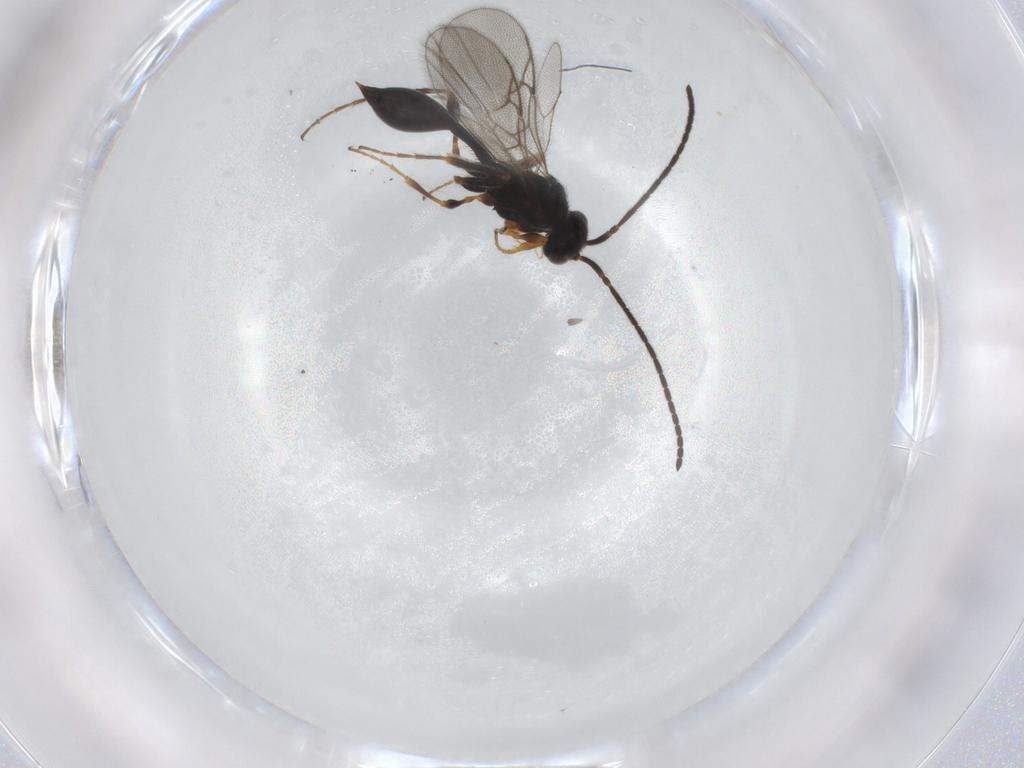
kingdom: Animalia
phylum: Arthropoda
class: Insecta
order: Hymenoptera
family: Diapriidae
